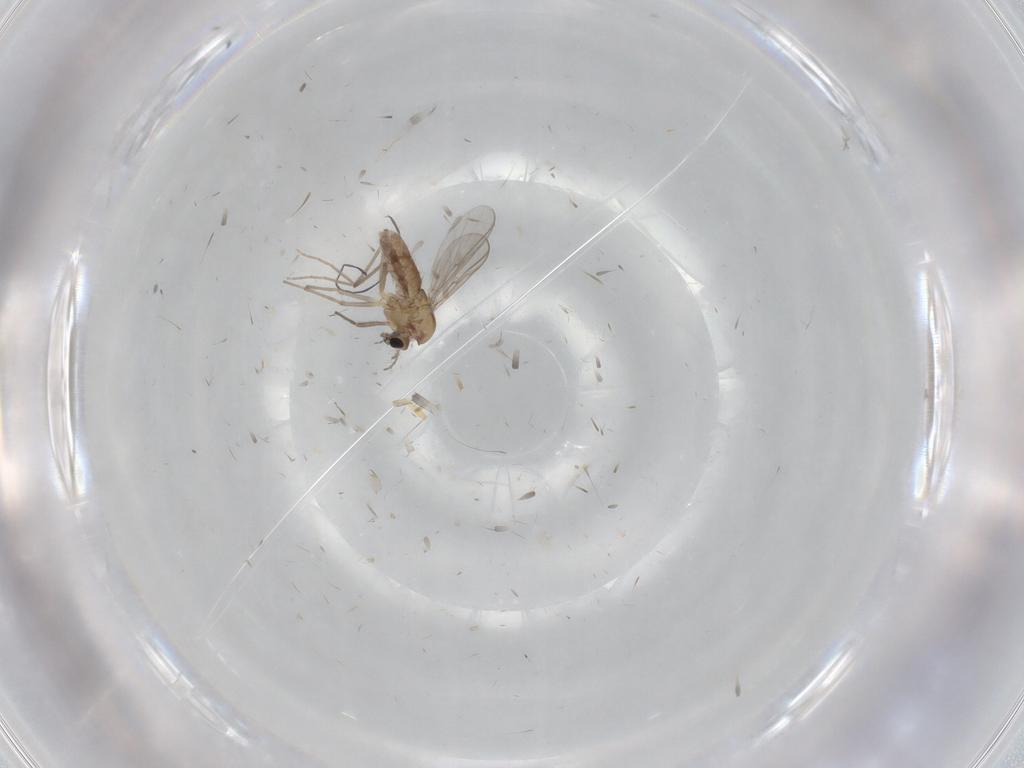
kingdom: Animalia
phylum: Arthropoda
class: Insecta
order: Diptera
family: Chironomidae
